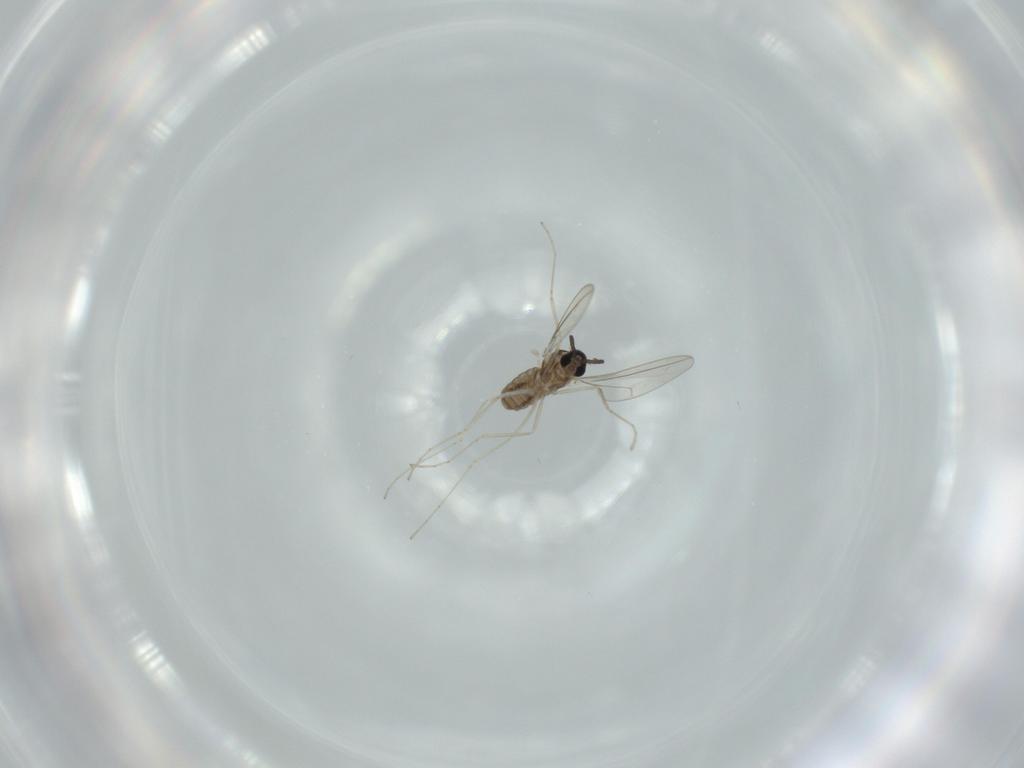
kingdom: Animalia
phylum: Arthropoda
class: Insecta
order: Diptera
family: Cecidomyiidae
